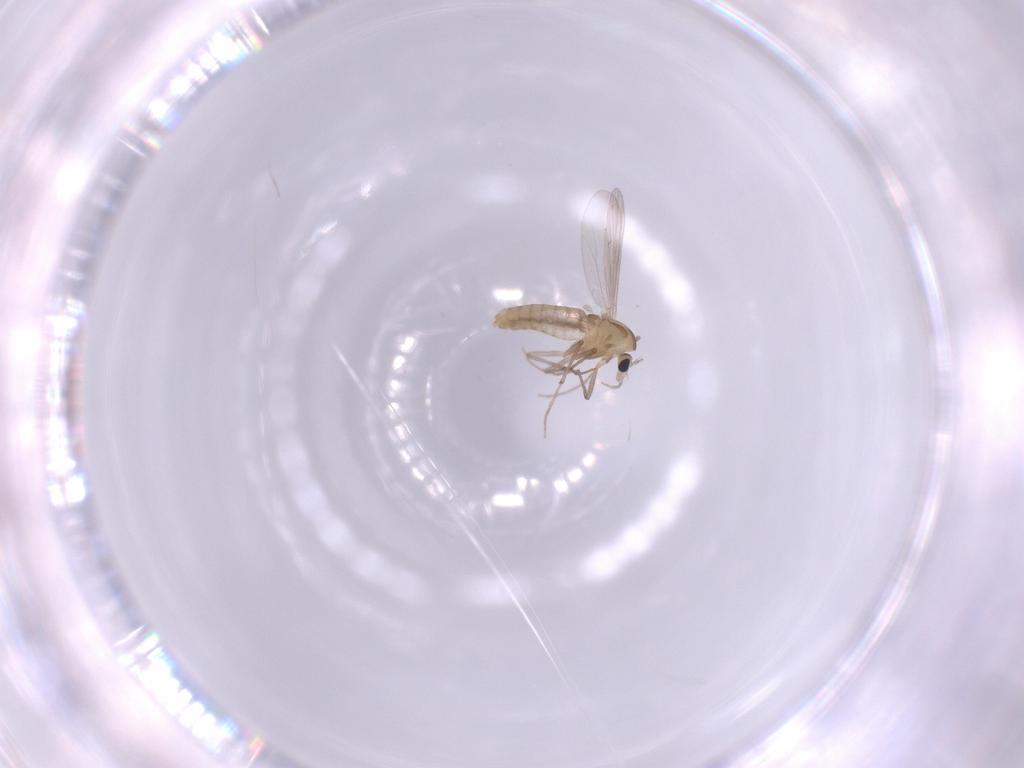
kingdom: Animalia
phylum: Arthropoda
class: Insecta
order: Diptera
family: Chironomidae
